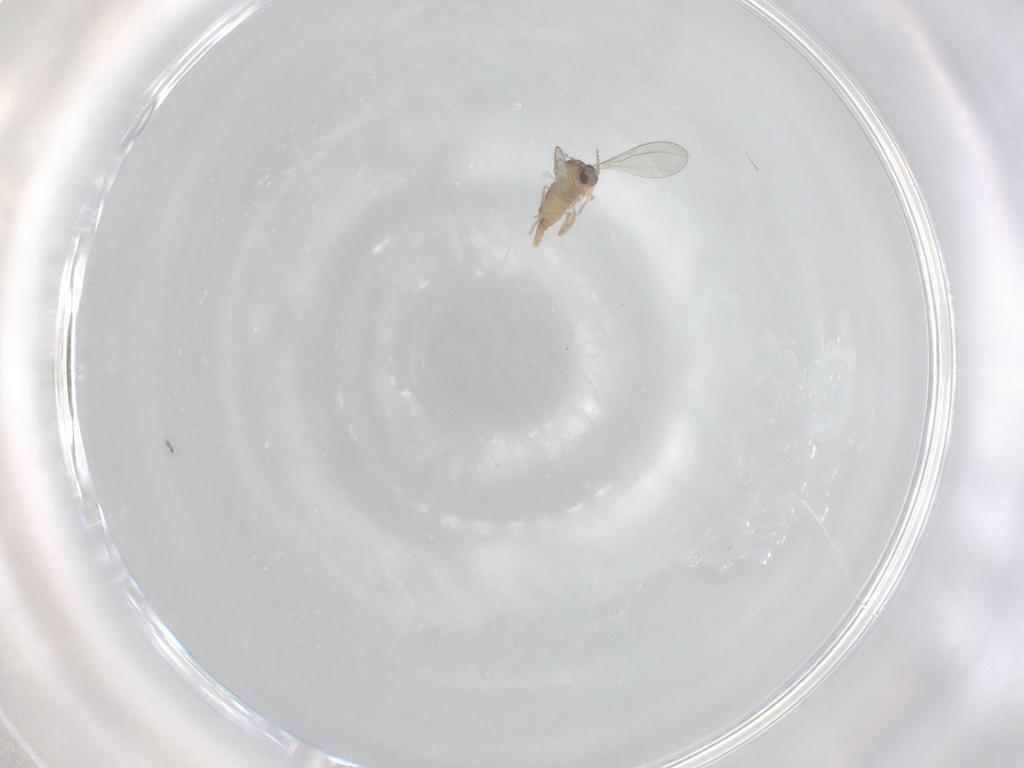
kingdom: Animalia
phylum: Arthropoda
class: Insecta
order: Diptera
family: Cecidomyiidae
